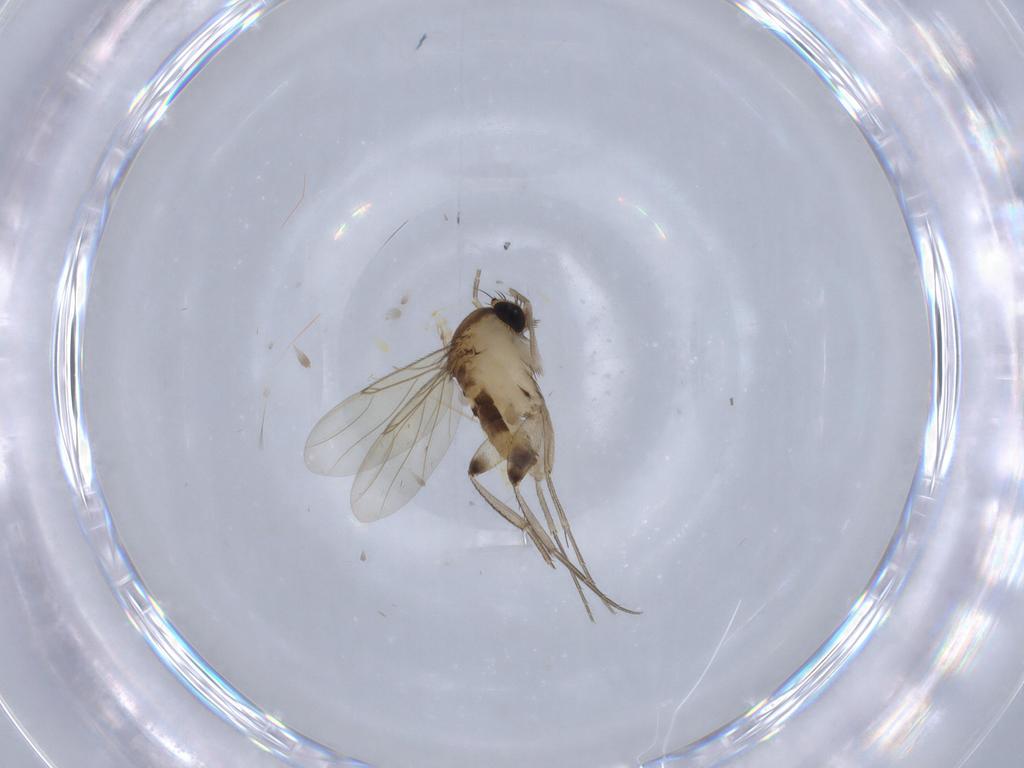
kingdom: Animalia
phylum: Arthropoda
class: Insecta
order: Diptera
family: Phoridae
